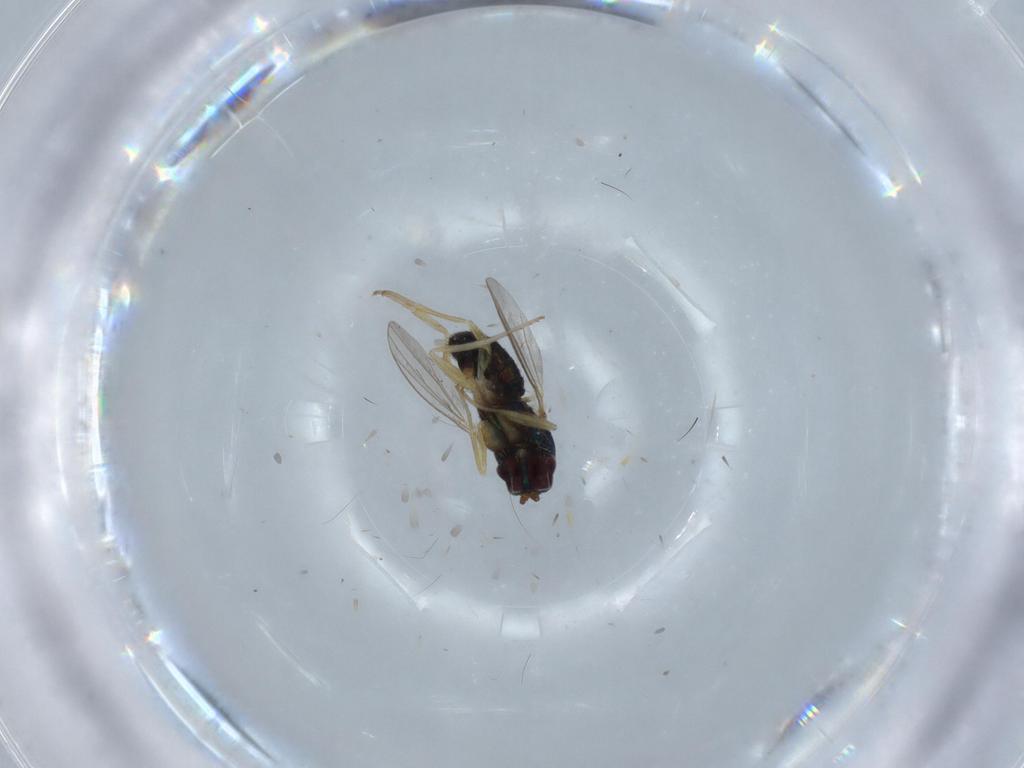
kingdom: Animalia
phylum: Arthropoda
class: Insecta
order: Diptera
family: Dolichopodidae
